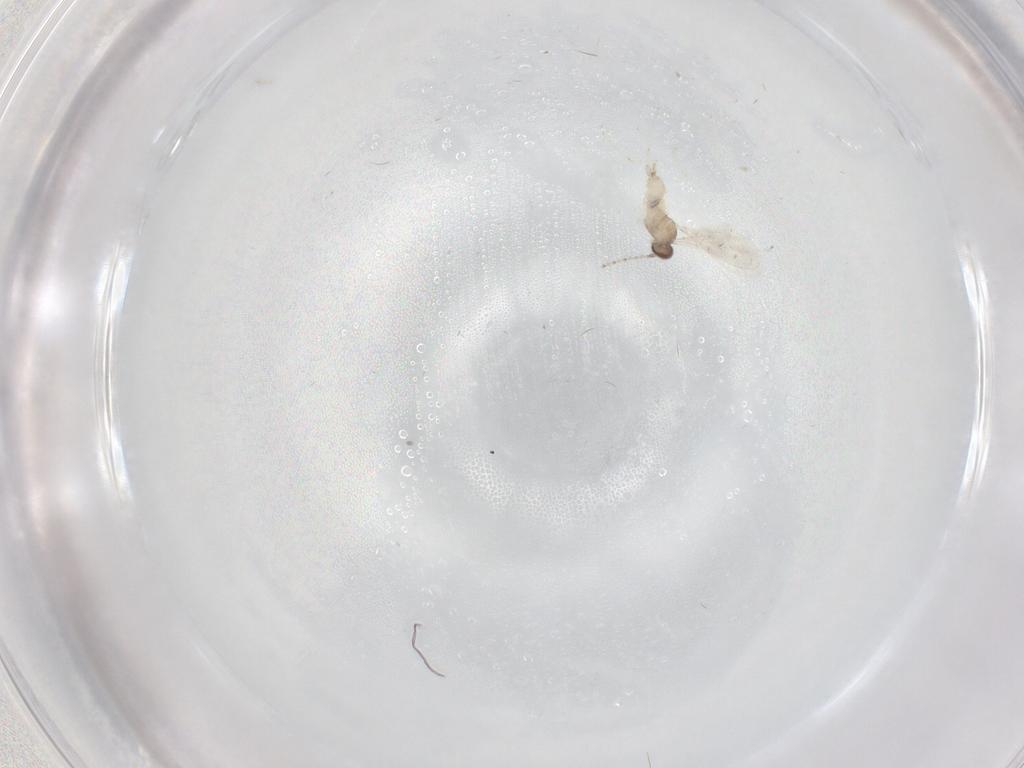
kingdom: Animalia
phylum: Arthropoda
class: Insecta
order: Diptera
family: Cecidomyiidae
